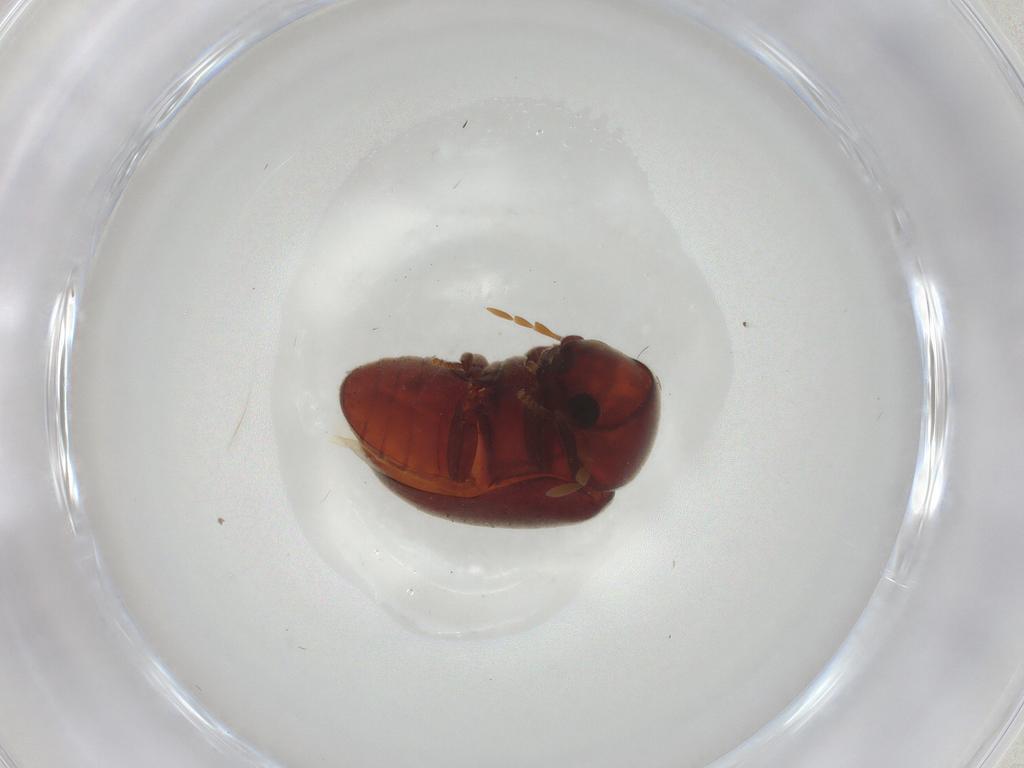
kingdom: Animalia
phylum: Arthropoda
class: Insecta
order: Coleoptera
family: Ptinidae
